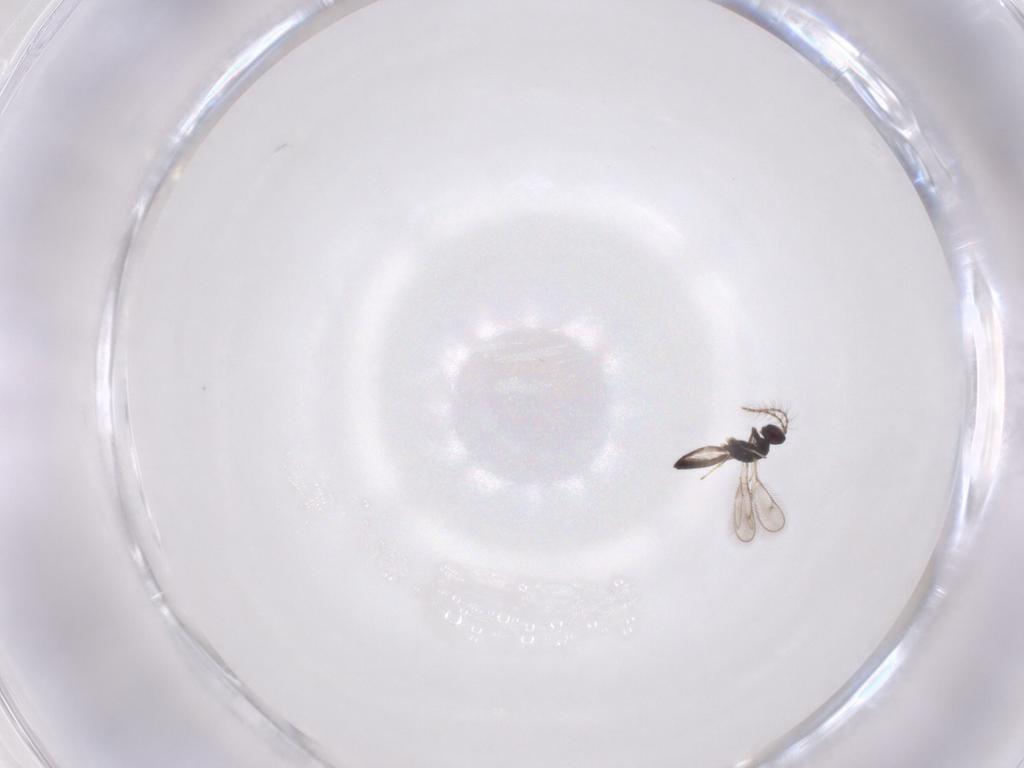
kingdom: Animalia
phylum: Arthropoda
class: Insecta
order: Hymenoptera
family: Pteromalidae
